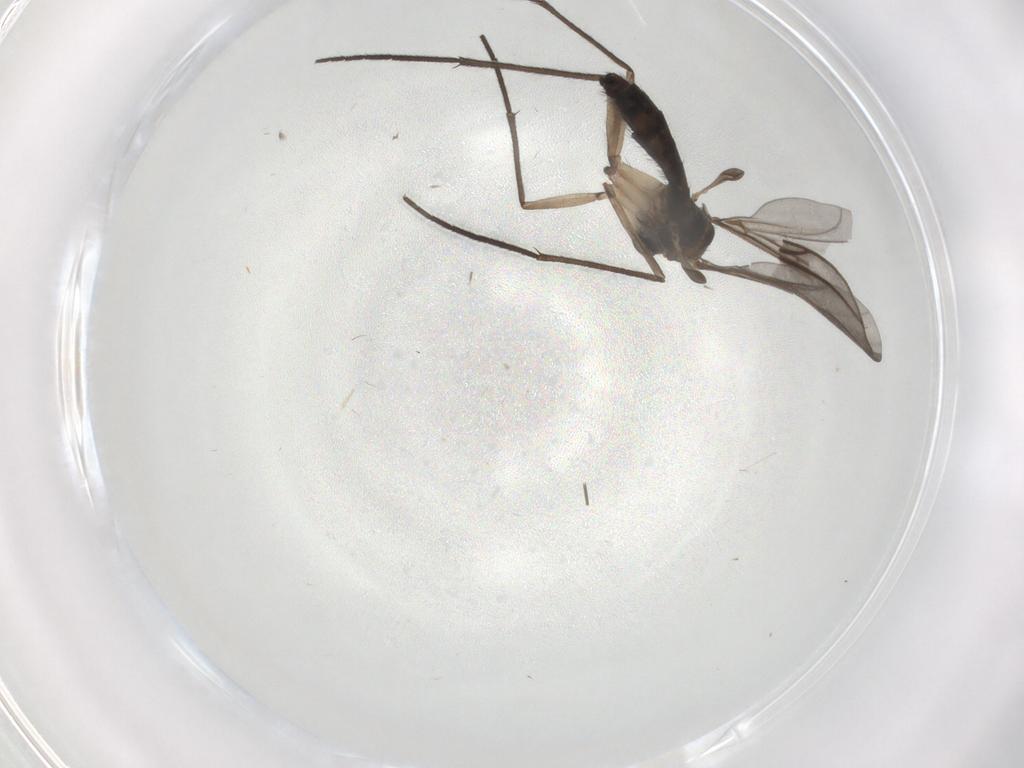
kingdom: Animalia
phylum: Arthropoda
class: Insecta
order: Diptera
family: Sciaridae
